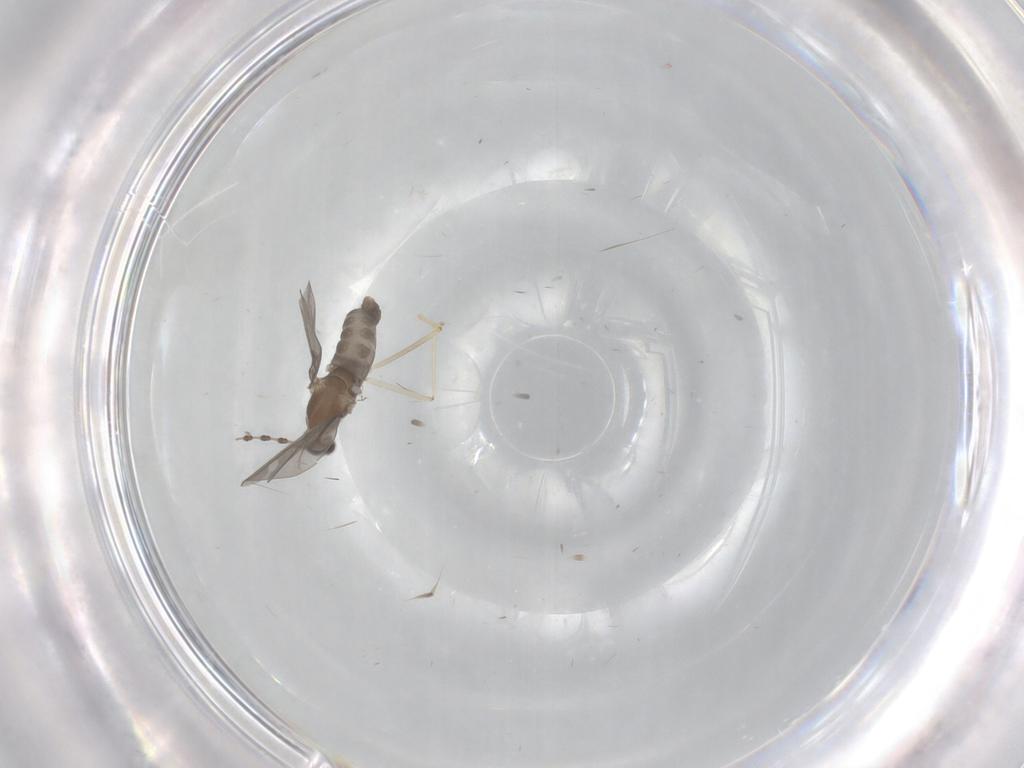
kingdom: Animalia
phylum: Arthropoda
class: Insecta
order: Diptera
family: Cecidomyiidae
